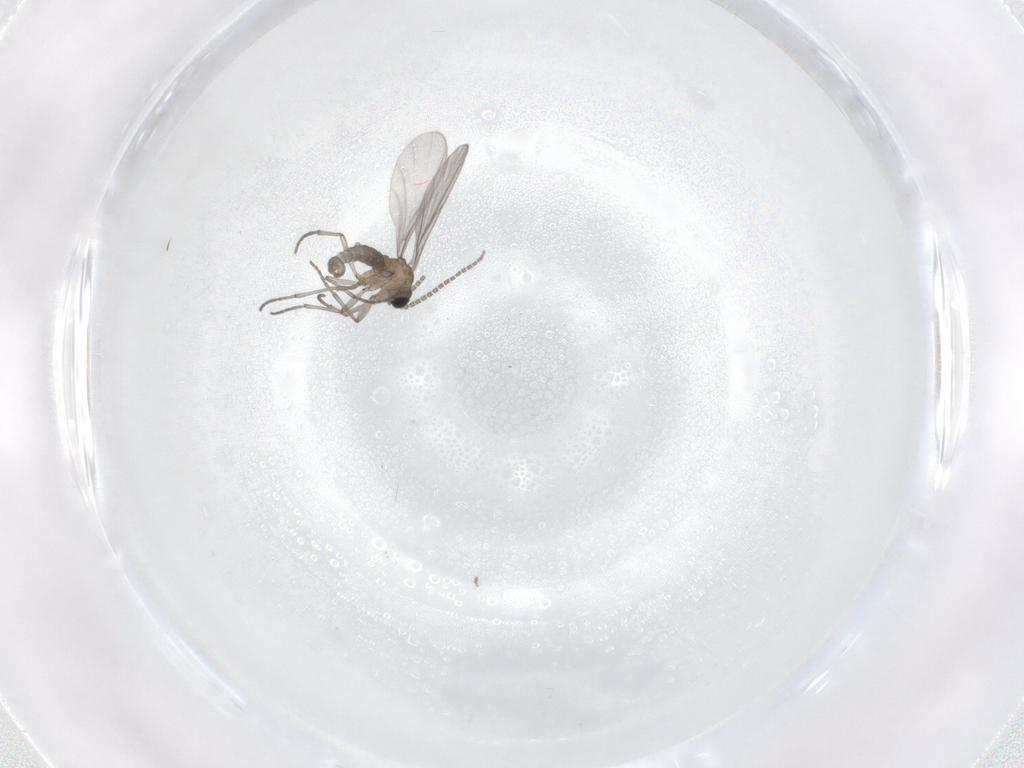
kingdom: Animalia
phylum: Arthropoda
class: Insecta
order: Diptera
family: Sciaridae
